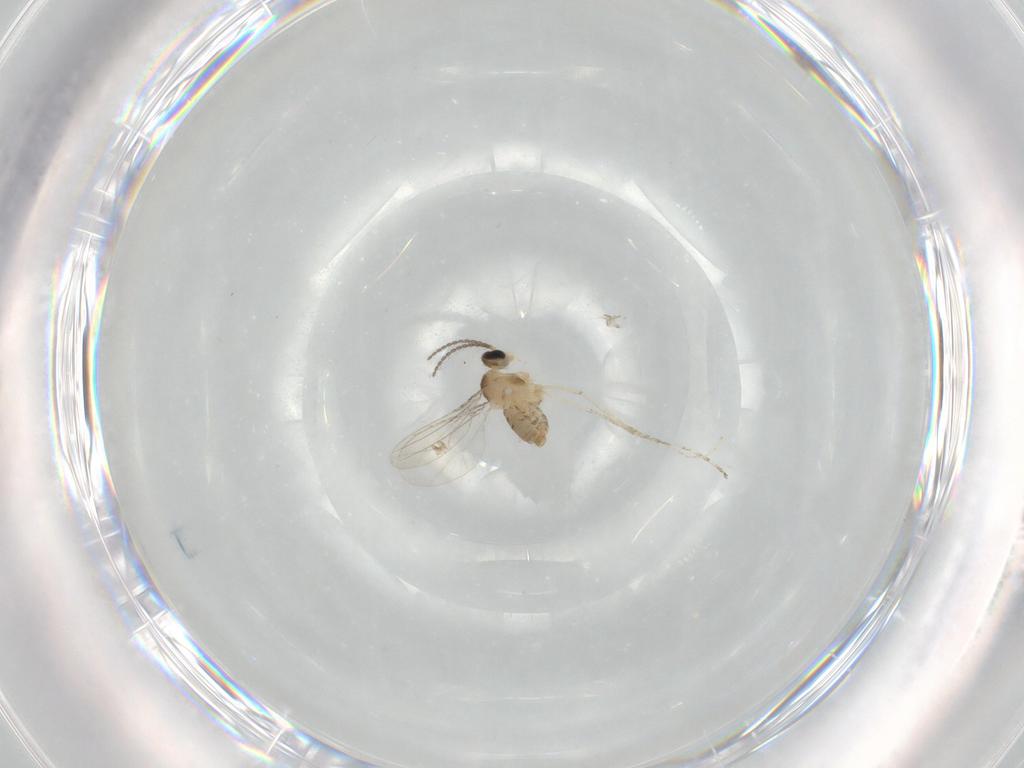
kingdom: Animalia
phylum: Arthropoda
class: Insecta
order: Diptera
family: Cecidomyiidae
